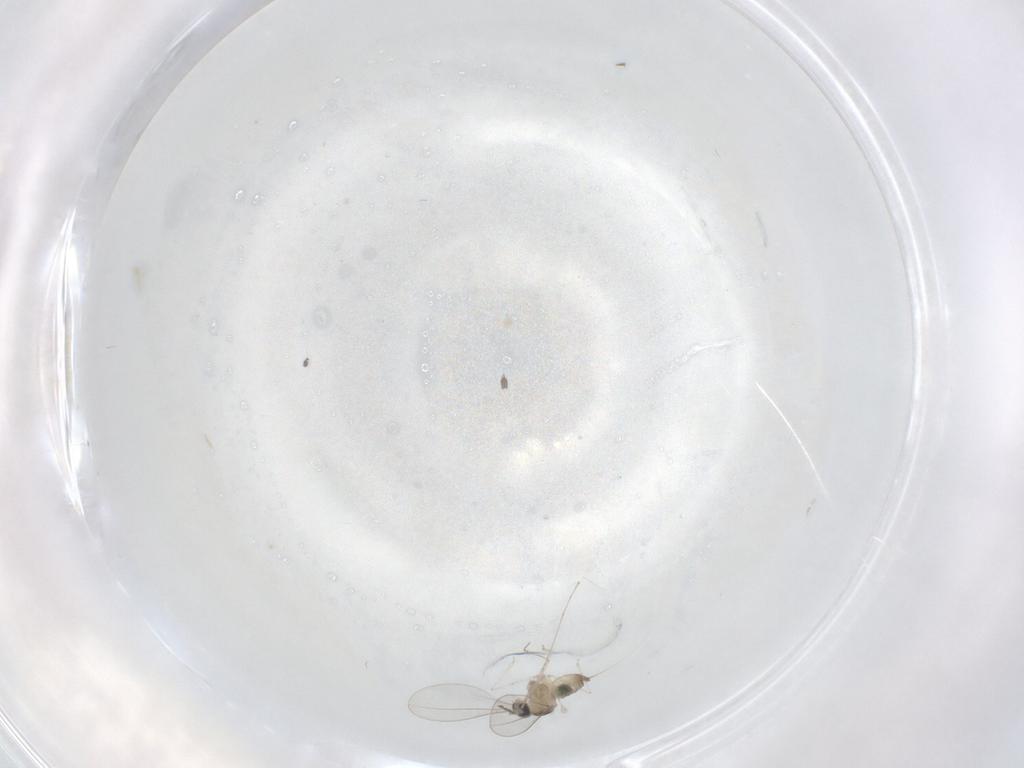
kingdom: Animalia
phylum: Arthropoda
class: Insecta
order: Diptera
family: Cecidomyiidae
